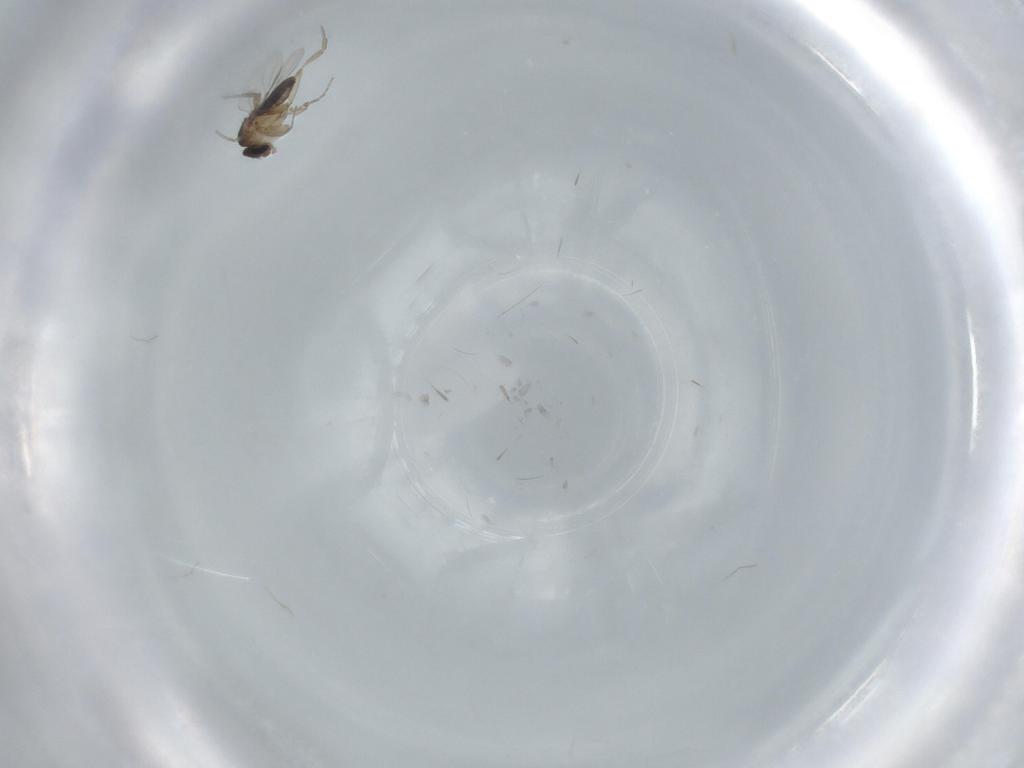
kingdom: Animalia
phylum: Arthropoda
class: Insecta
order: Diptera
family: Phoridae
